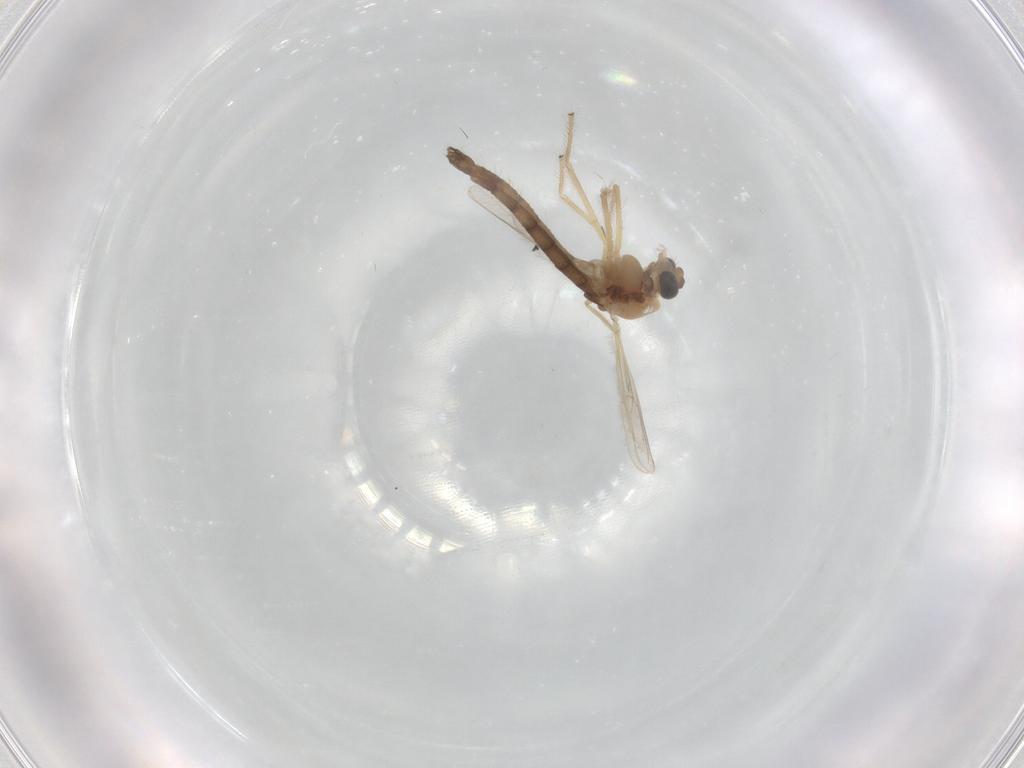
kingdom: Animalia
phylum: Arthropoda
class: Insecta
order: Diptera
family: Chironomidae
